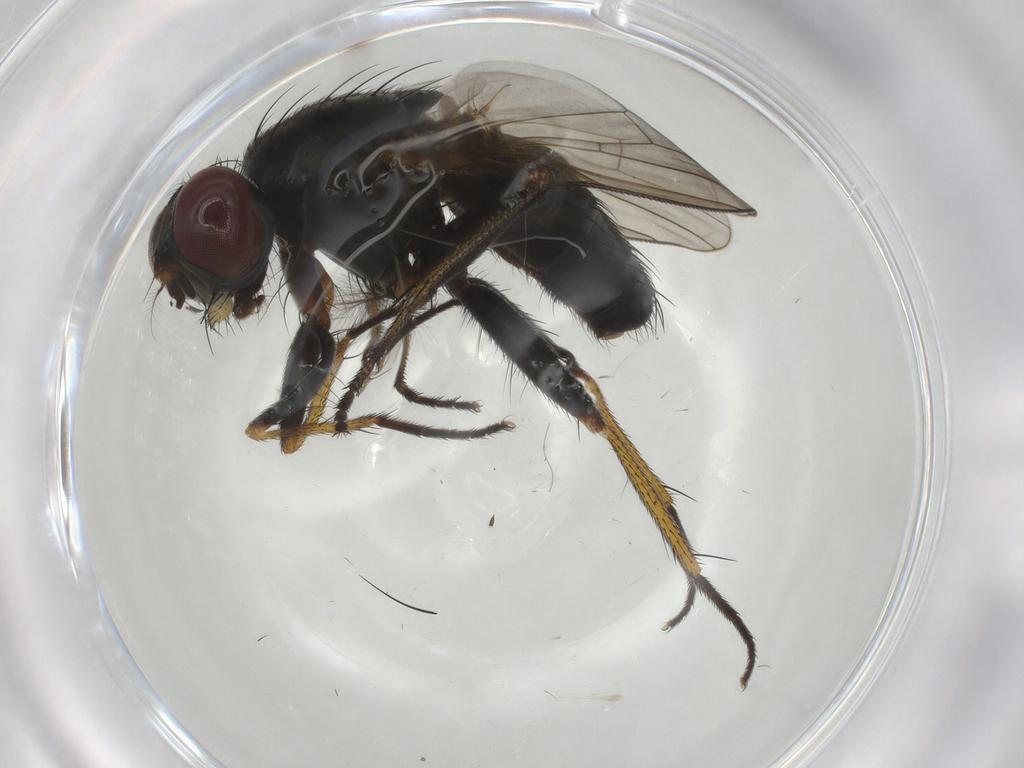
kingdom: Animalia
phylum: Arthropoda
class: Insecta
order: Diptera
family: Muscidae
